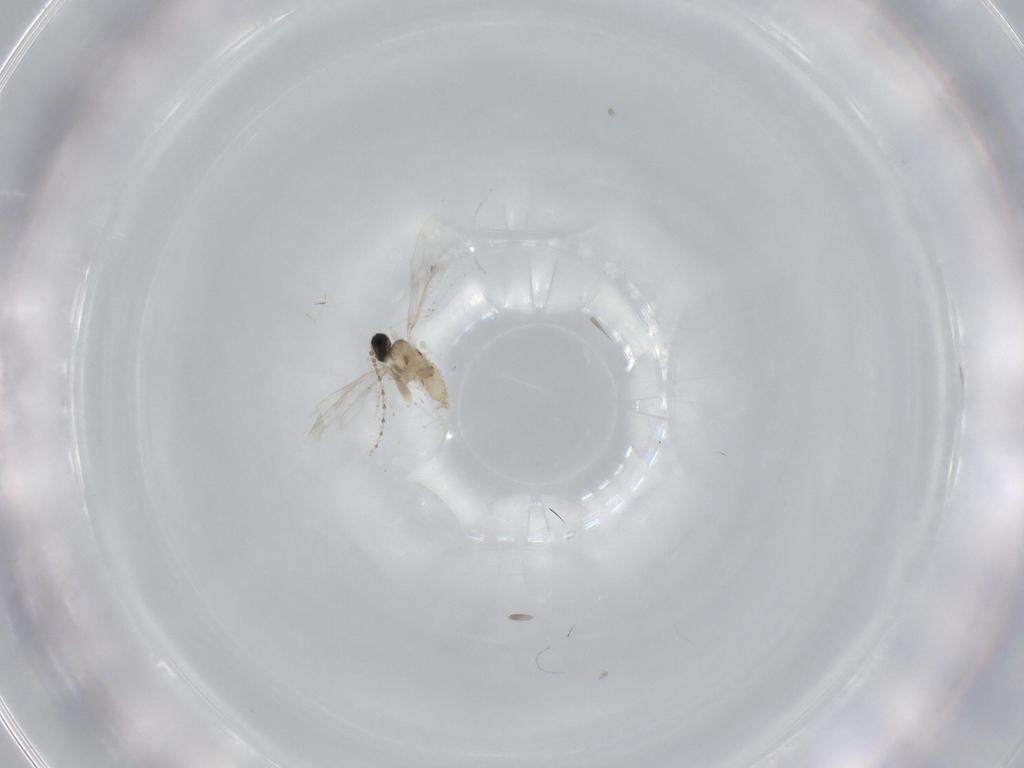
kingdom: Animalia
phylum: Arthropoda
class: Insecta
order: Diptera
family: Cecidomyiidae
